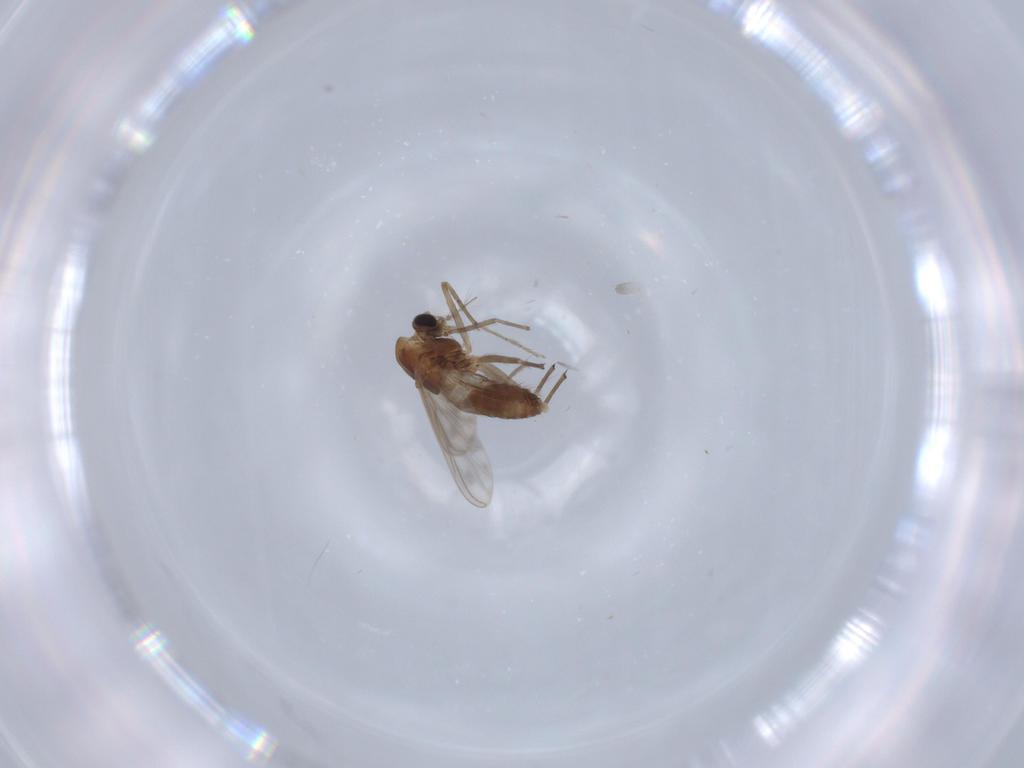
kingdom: Animalia
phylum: Arthropoda
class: Insecta
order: Diptera
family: Chironomidae
